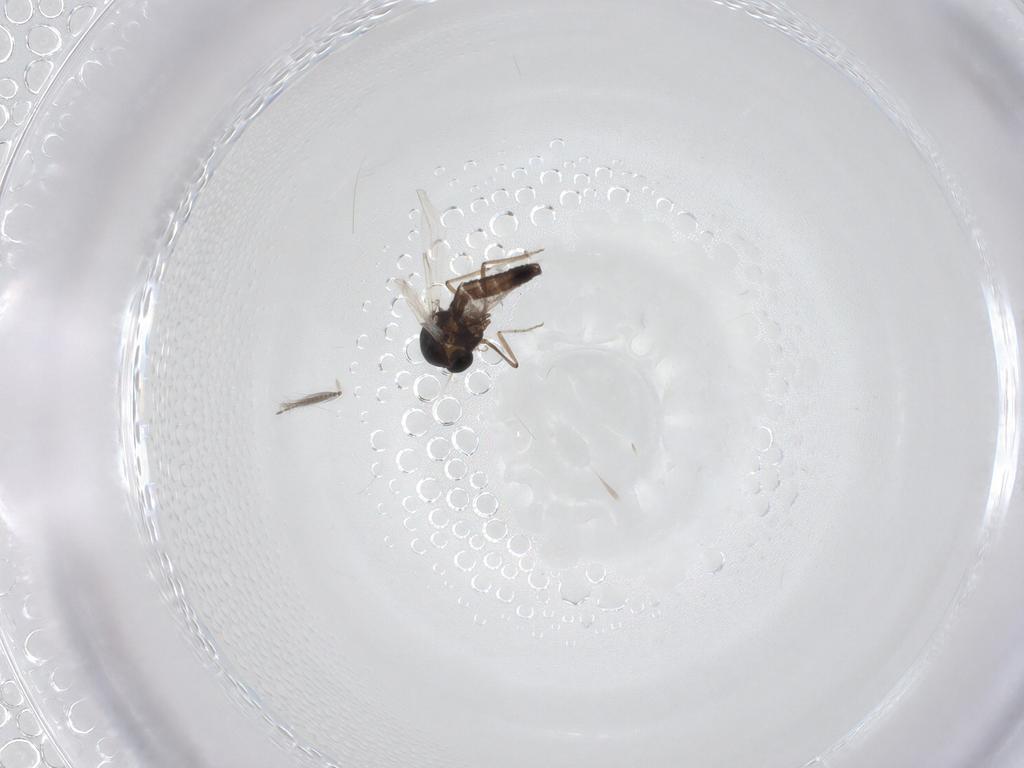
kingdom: Animalia
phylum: Arthropoda
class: Insecta
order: Diptera
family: Ceratopogonidae
